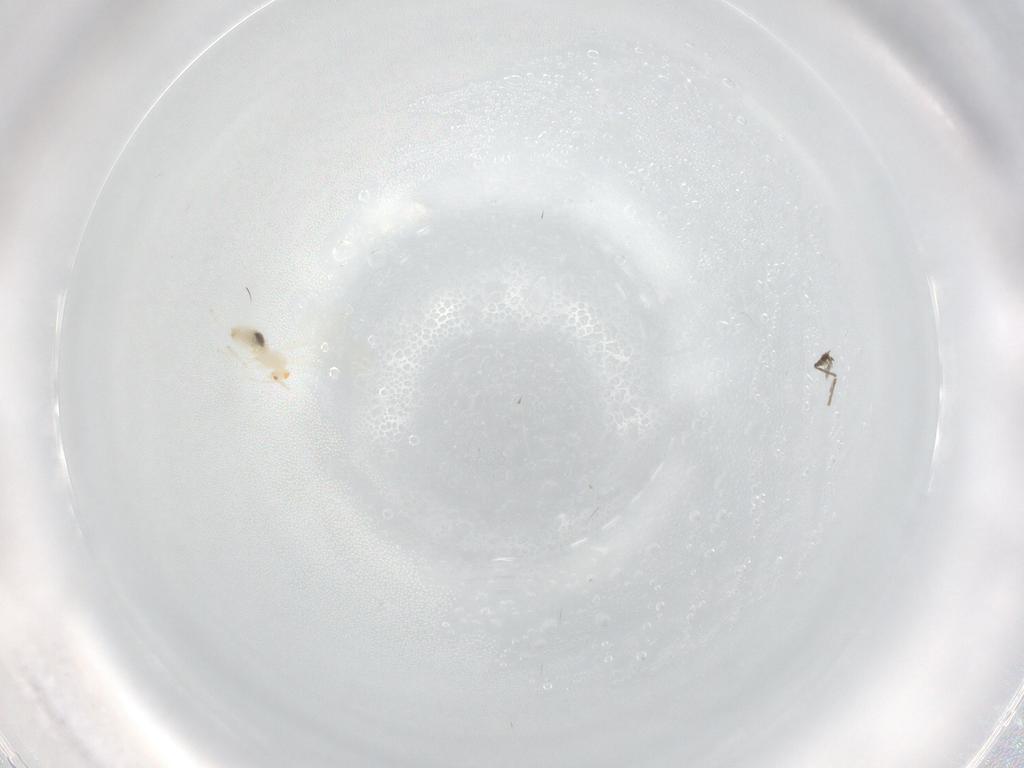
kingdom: Animalia
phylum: Arthropoda
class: Insecta
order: Diptera
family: Cecidomyiidae
